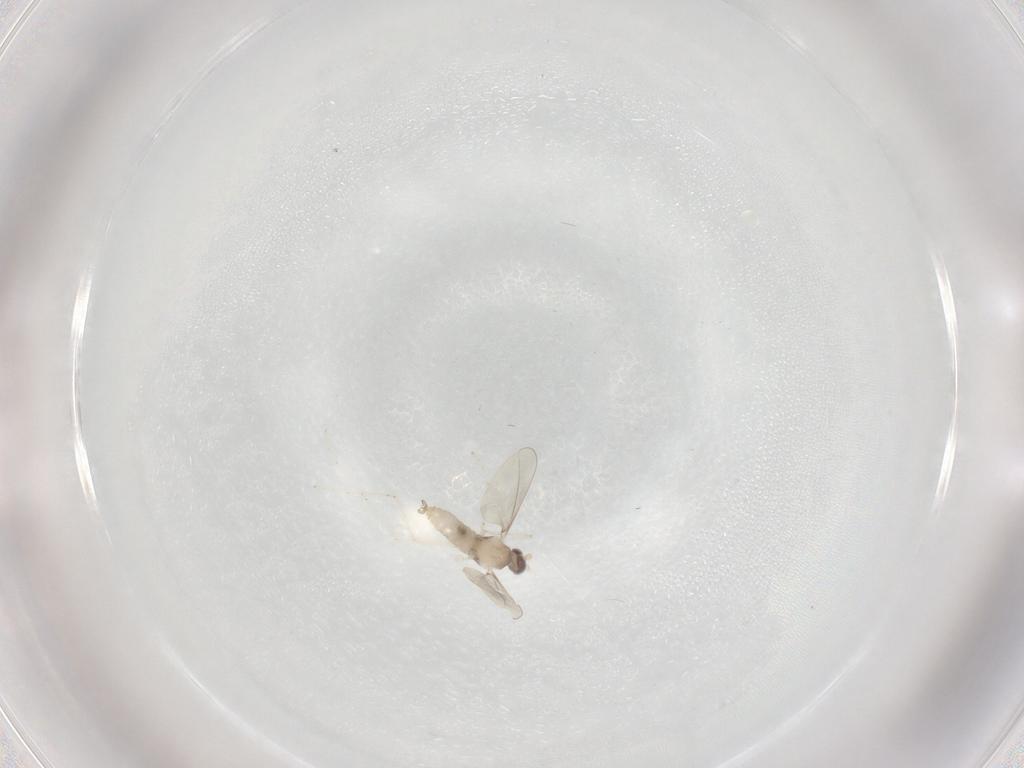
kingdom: Animalia
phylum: Arthropoda
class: Insecta
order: Diptera
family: Cecidomyiidae
